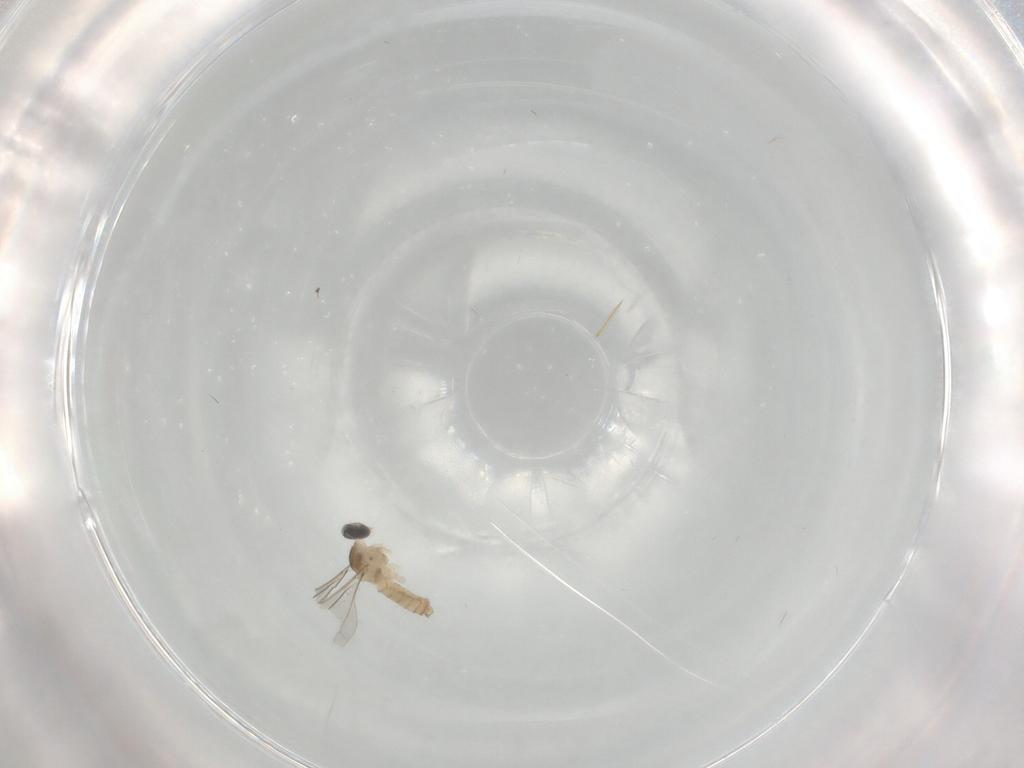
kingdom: Animalia
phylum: Arthropoda
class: Insecta
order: Diptera
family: Cecidomyiidae
